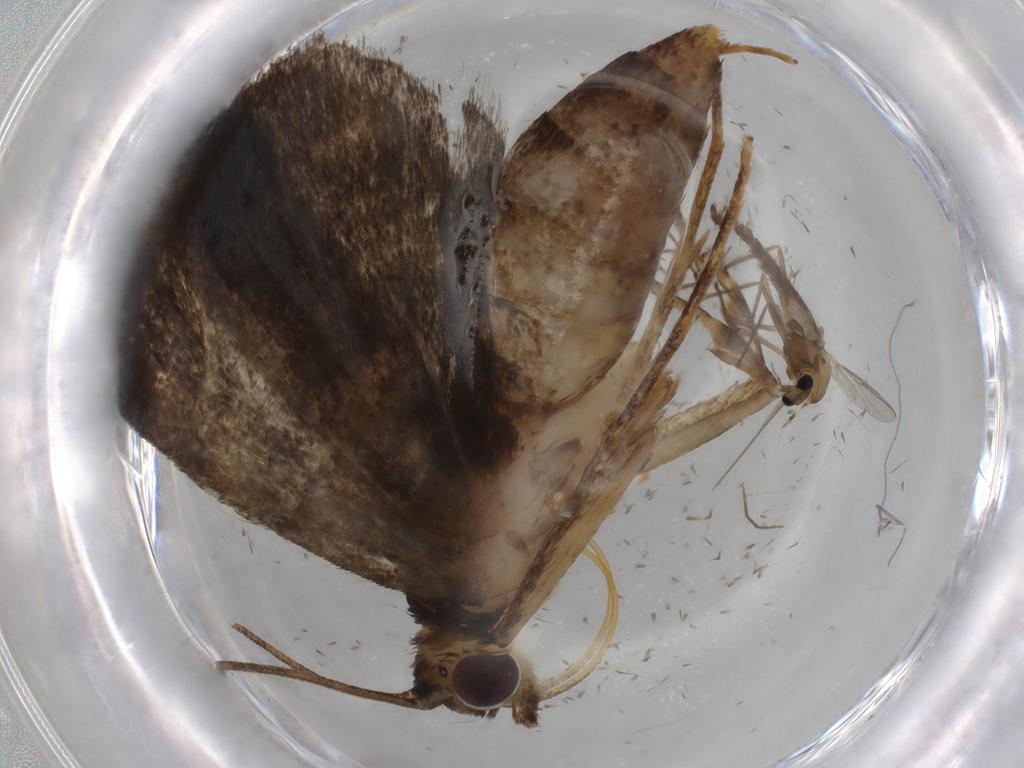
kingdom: Animalia
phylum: Arthropoda
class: Insecta
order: Diptera
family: Chironomidae
